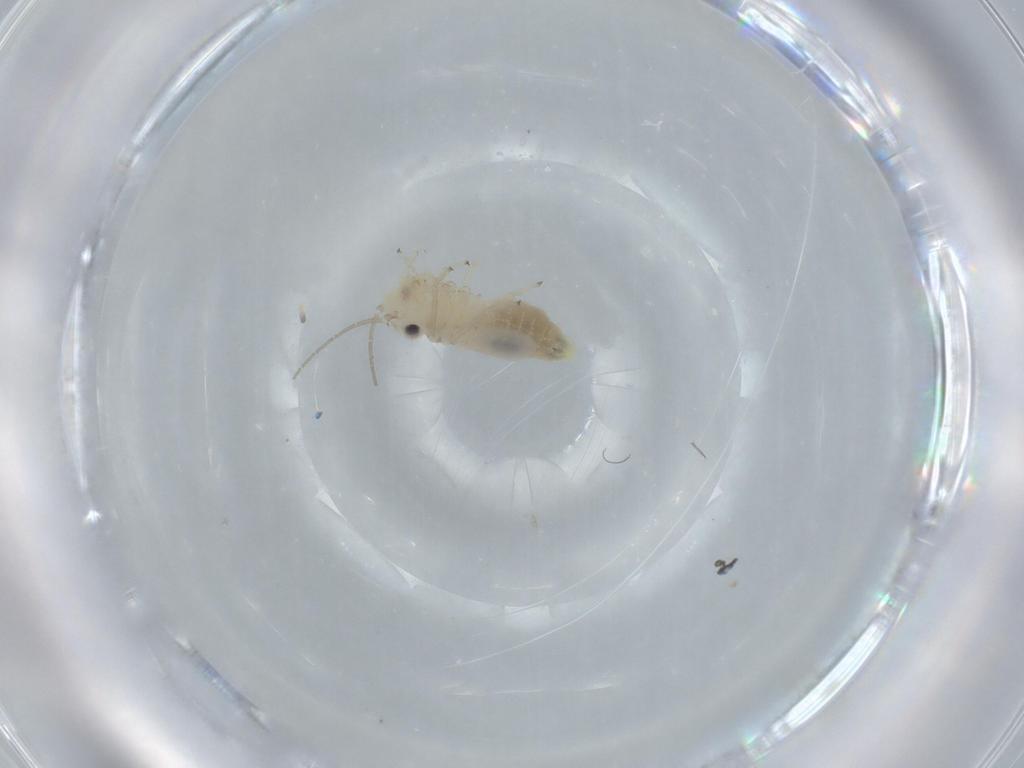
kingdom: Animalia
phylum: Arthropoda
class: Insecta
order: Psocodea
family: Caeciliusidae
